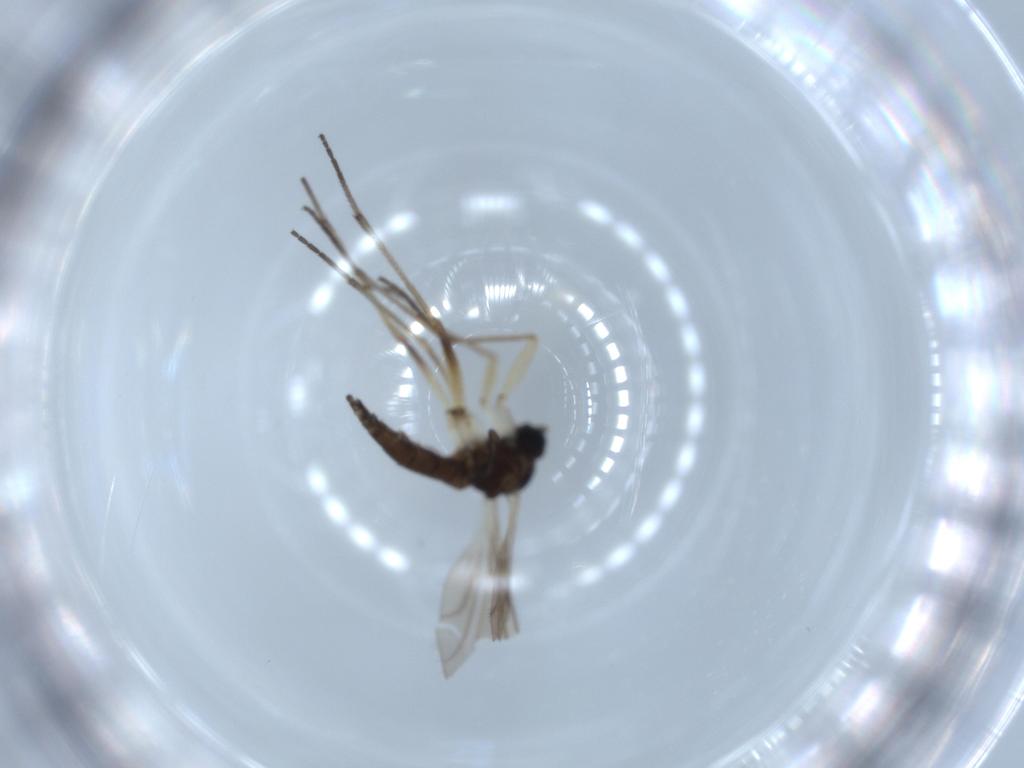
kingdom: Animalia
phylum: Arthropoda
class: Insecta
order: Diptera
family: Sciaridae
